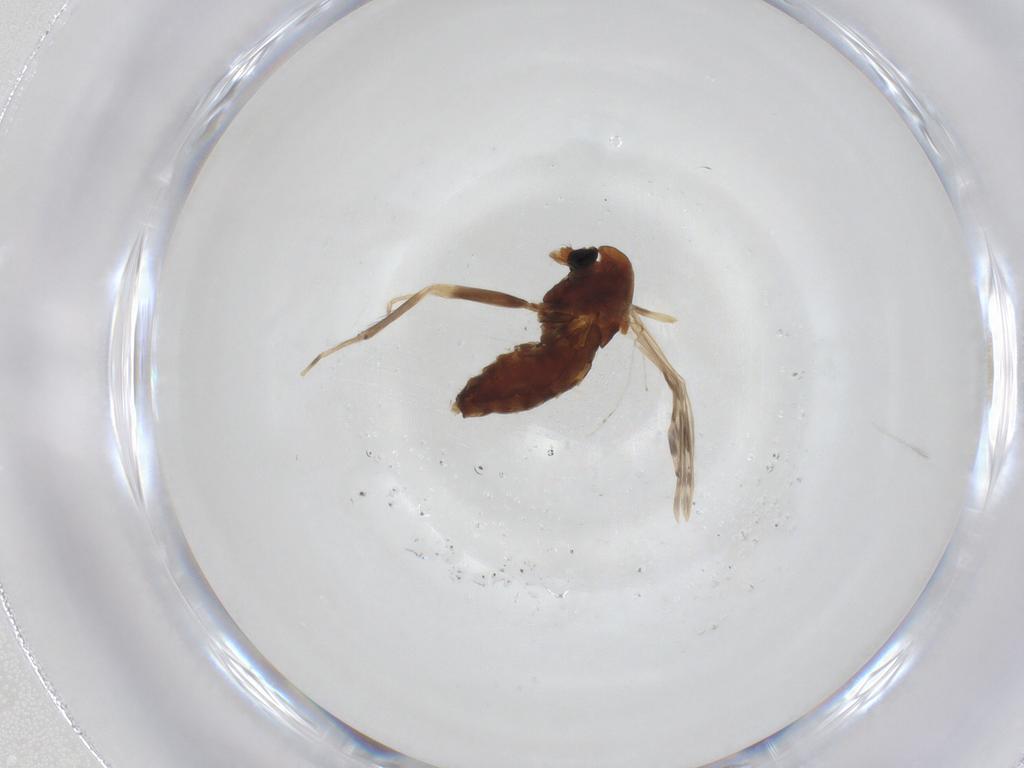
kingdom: Animalia
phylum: Arthropoda
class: Insecta
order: Diptera
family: Chironomidae
